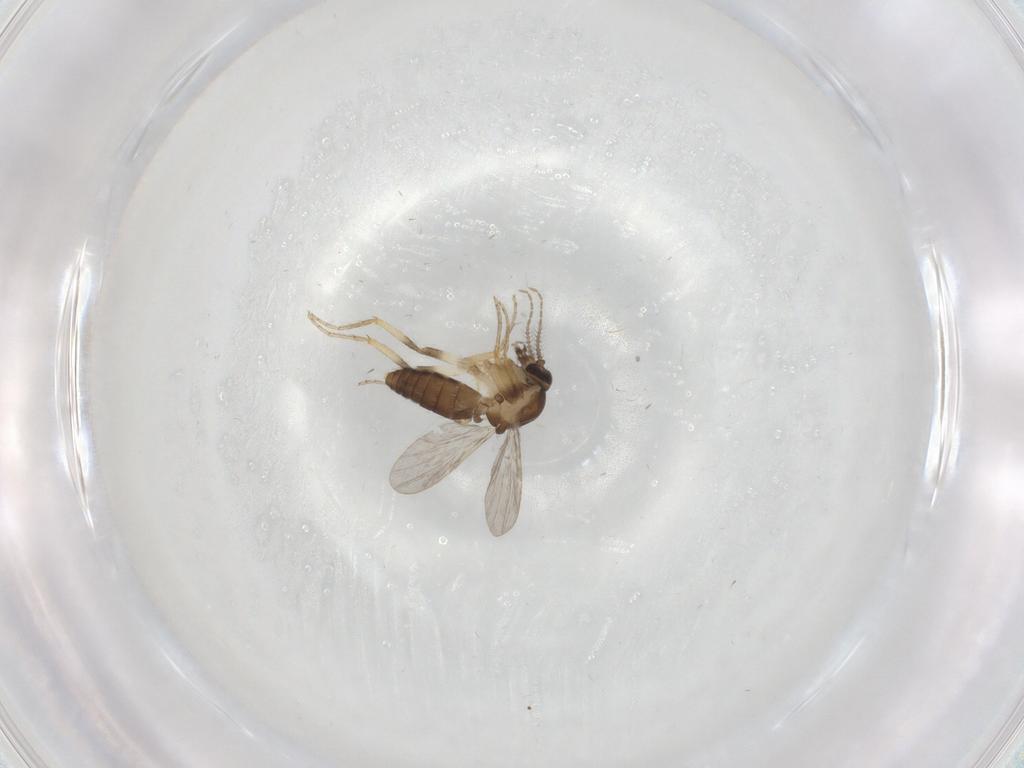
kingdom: Animalia
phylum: Arthropoda
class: Insecta
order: Diptera
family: Ceratopogonidae
